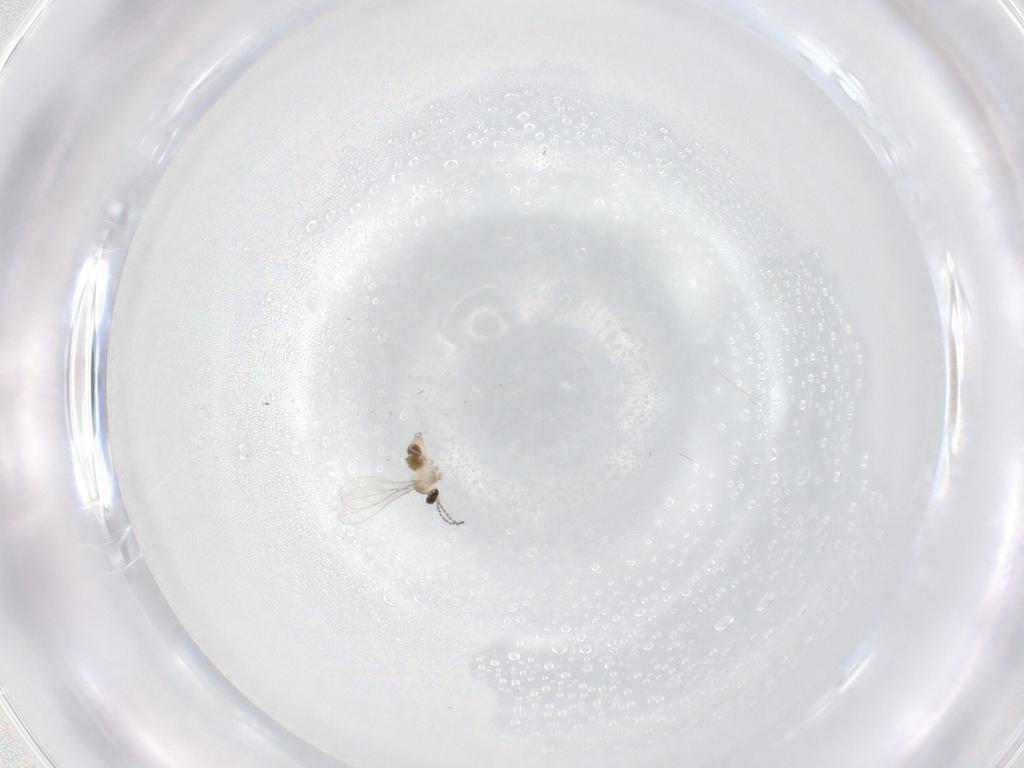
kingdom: Animalia
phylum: Arthropoda
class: Insecta
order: Diptera
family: Cecidomyiidae
